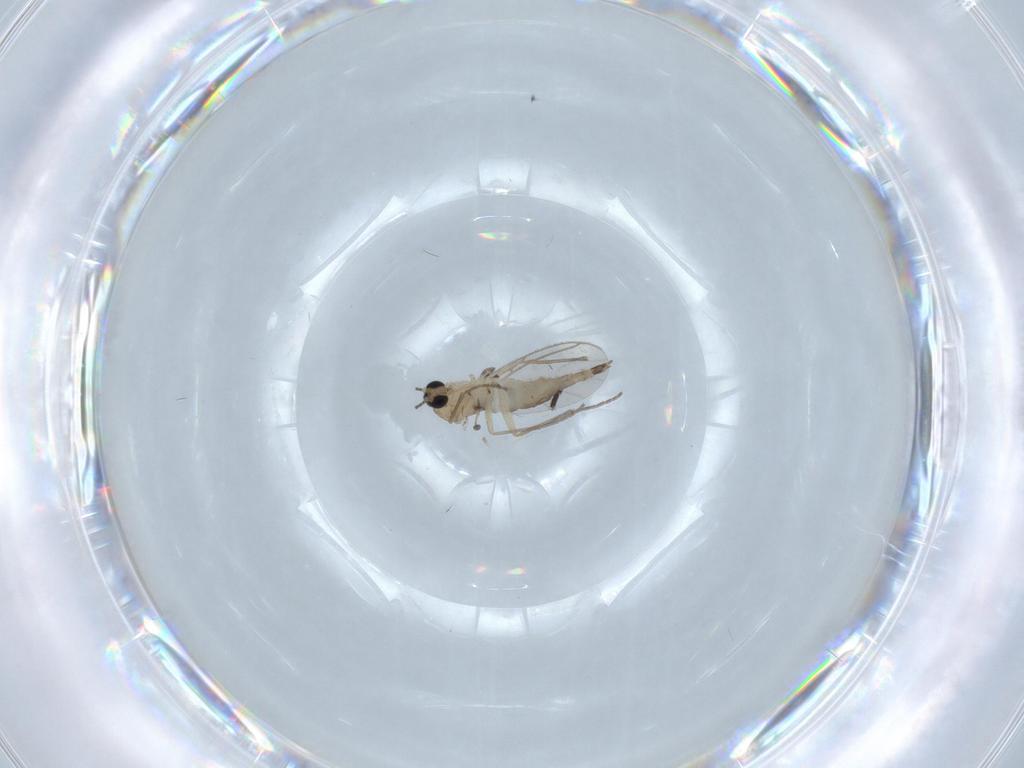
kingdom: Animalia
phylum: Arthropoda
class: Insecta
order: Diptera
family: Sciaridae
